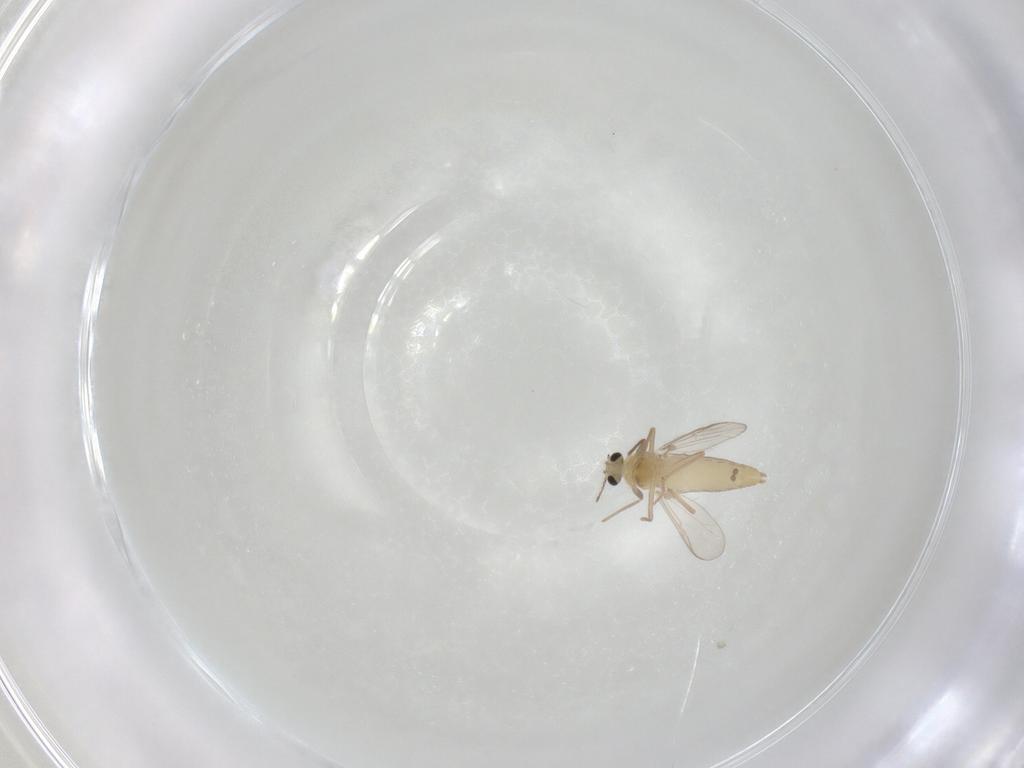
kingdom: Animalia
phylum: Arthropoda
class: Insecta
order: Diptera
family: Chironomidae
